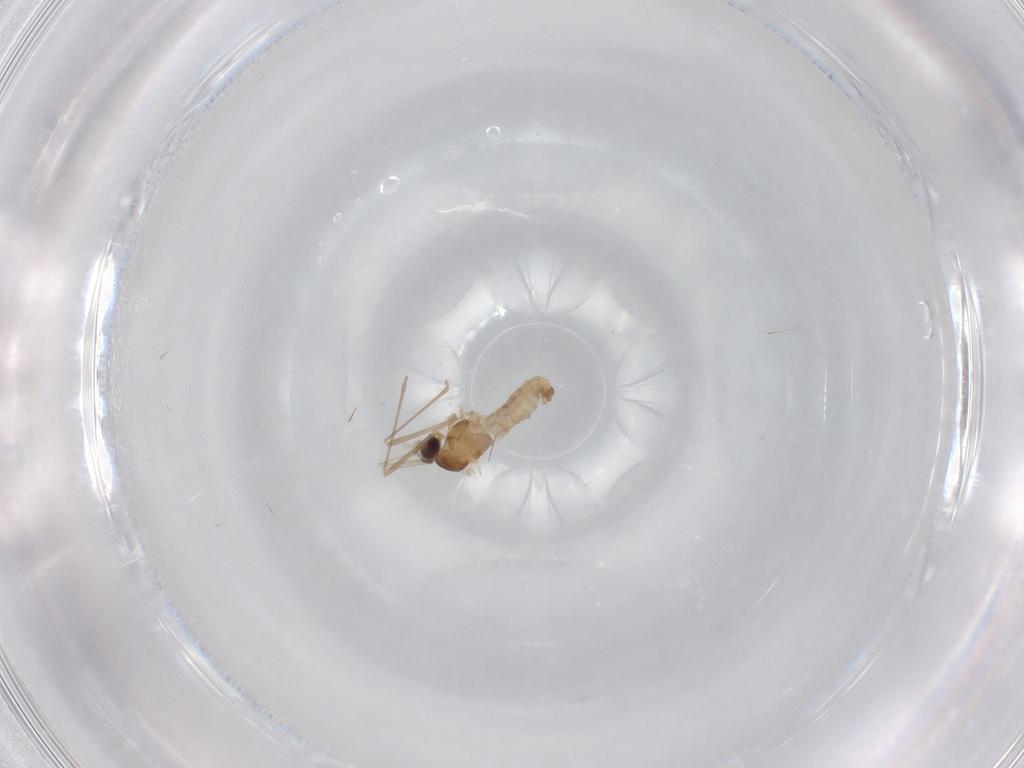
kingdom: Animalia
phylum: Arthropoda
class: Insecta
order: Diptera
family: Cecidomyiidae
